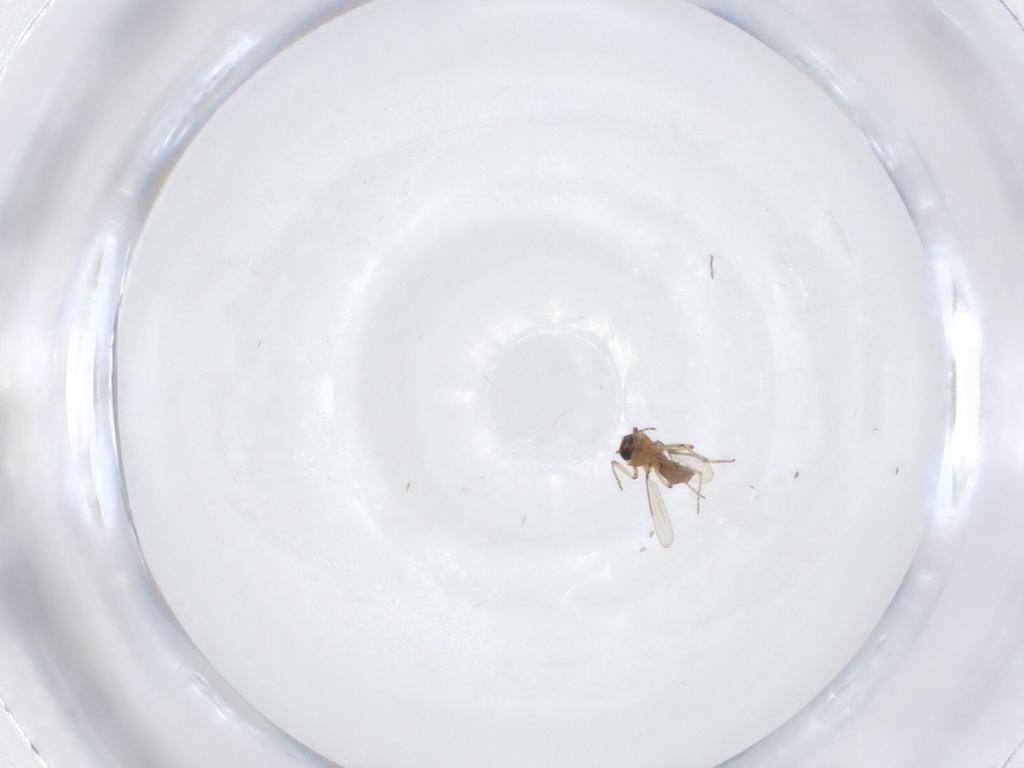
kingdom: Animalia
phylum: Arthropoda
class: Insecta
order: Diptera
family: Ceratopogonidae
